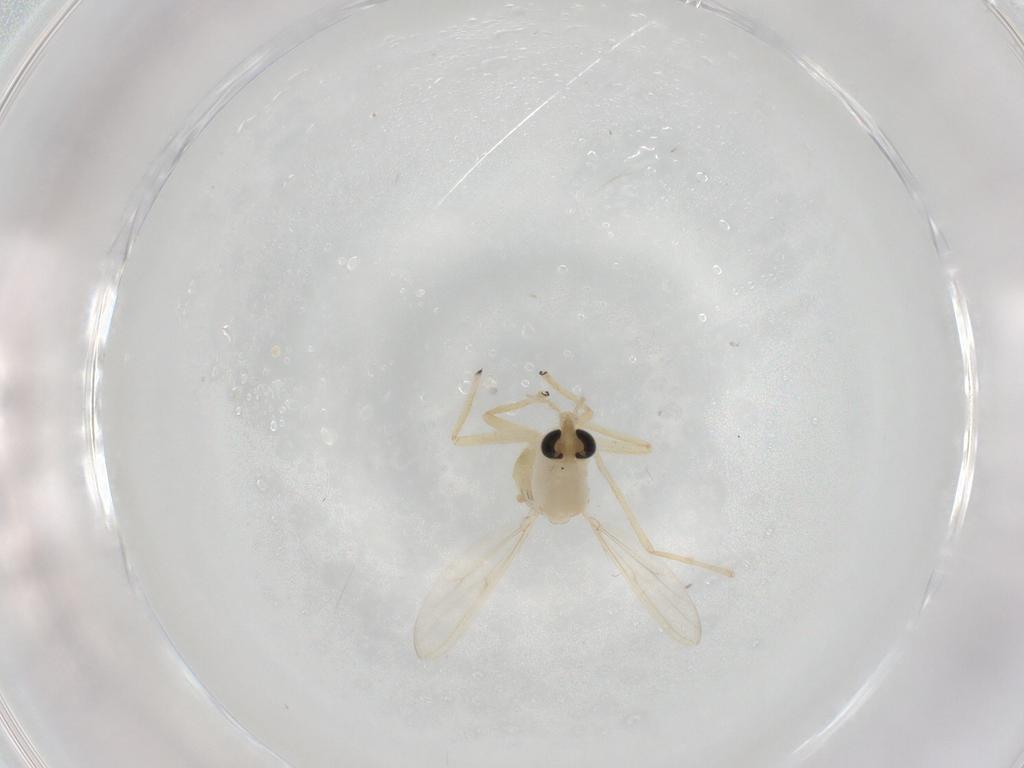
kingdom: Animalia
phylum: Arthropoda
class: Insecta
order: Diptera
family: Chironomidae
